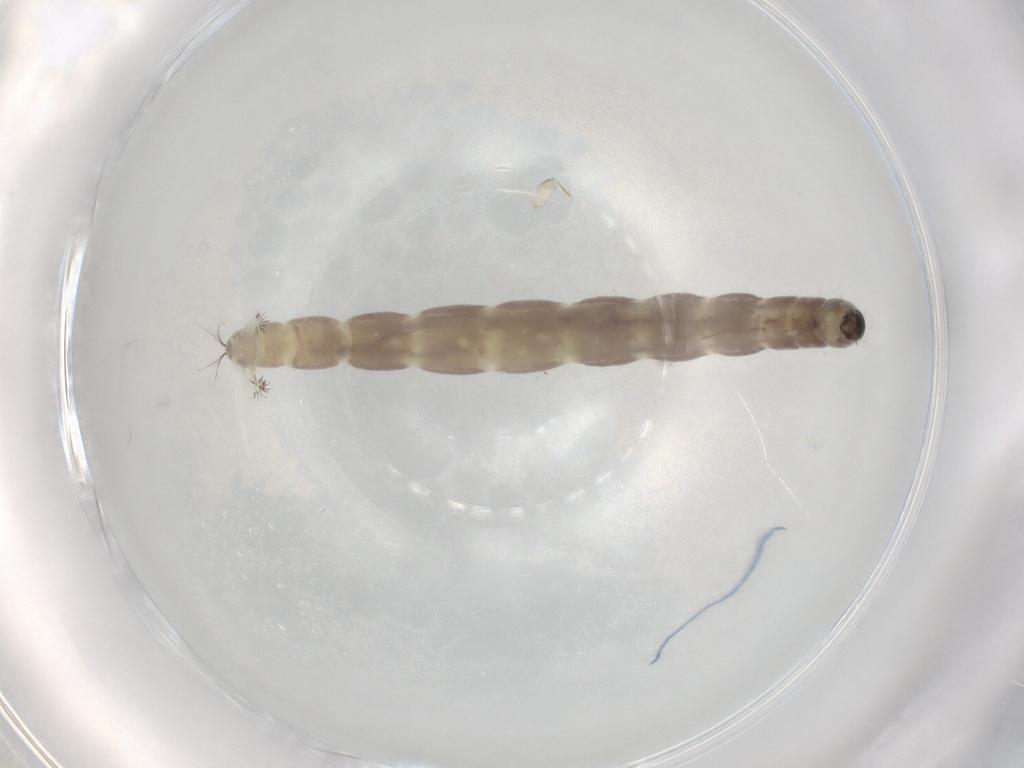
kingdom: Animalia
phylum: Arthropoda
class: Insecta
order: Diptera
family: Chironomidae
